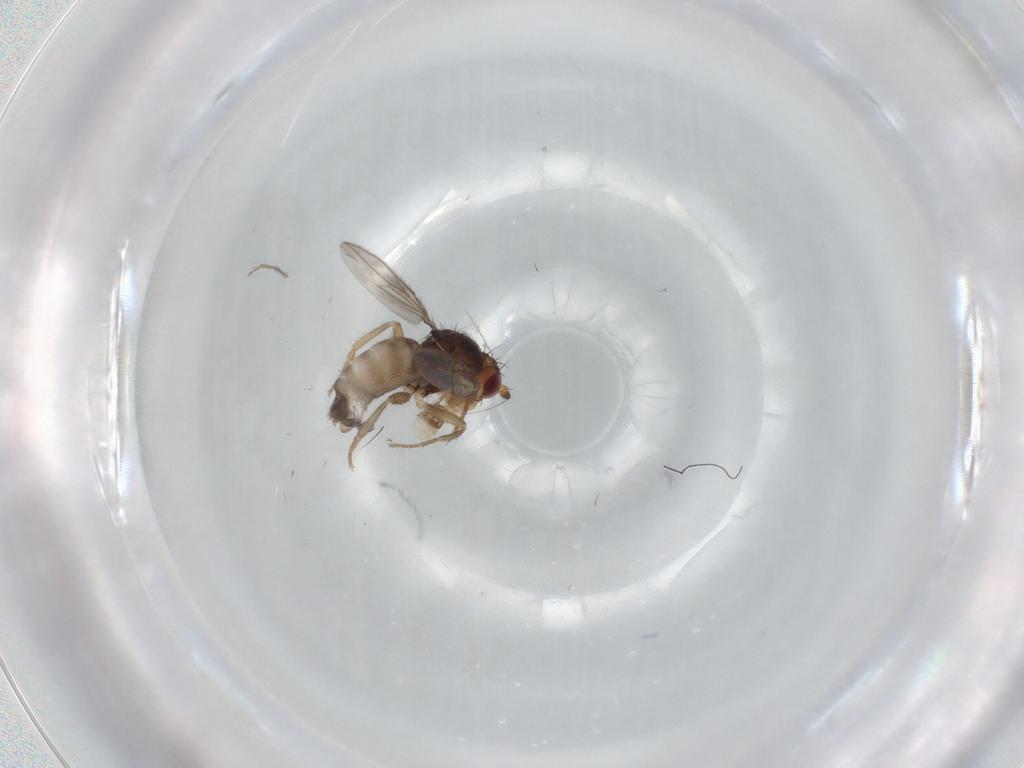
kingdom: Animalia
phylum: Arthropoda
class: Insecta
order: Diptera
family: Sphaeroceridae
